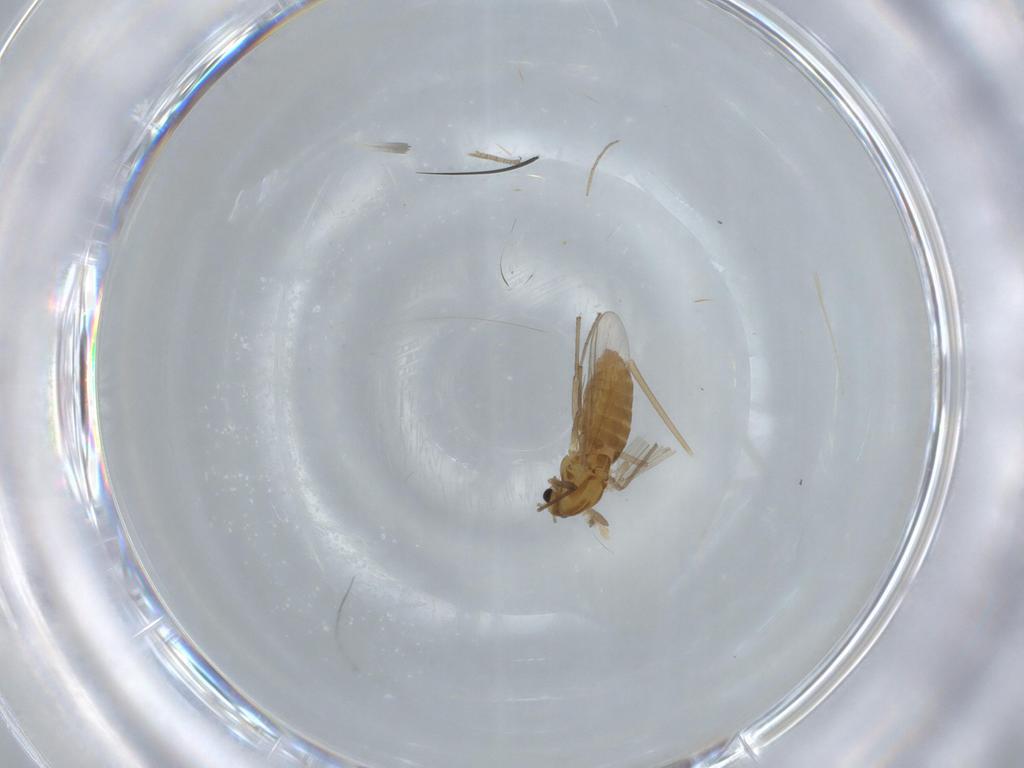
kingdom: Animalia
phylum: Arthropoda
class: Insecta
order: Diptera
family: Chironomidae
